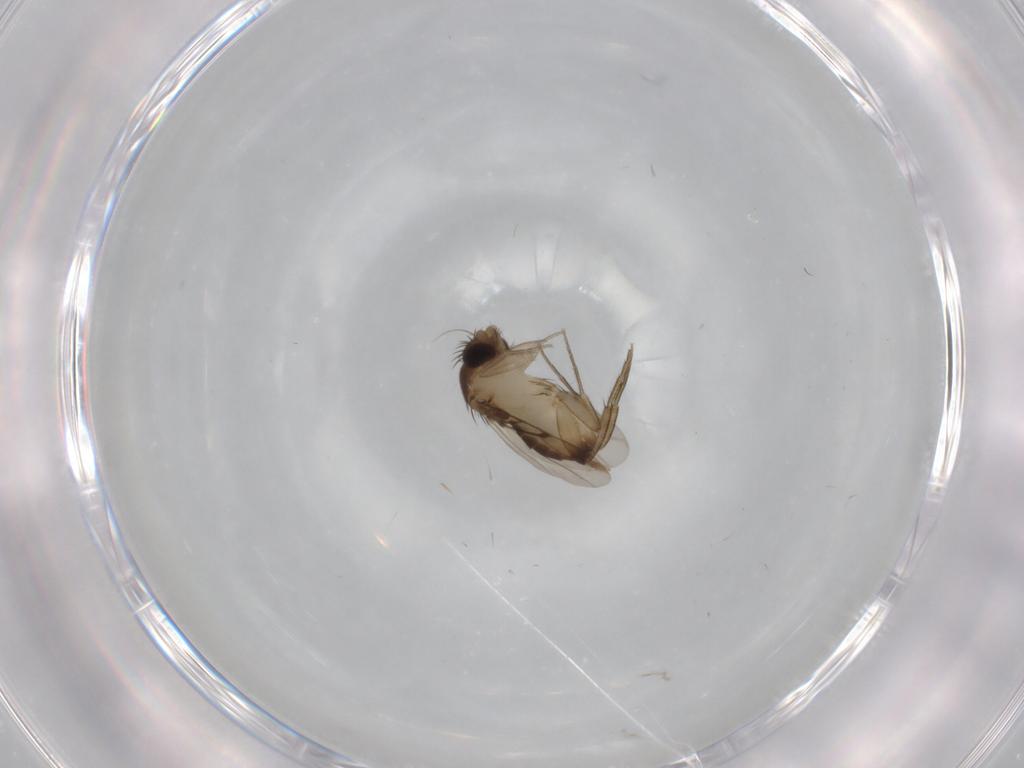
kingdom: Animalia
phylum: Arthropoda
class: Insecta
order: Diptera
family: Phoridae
